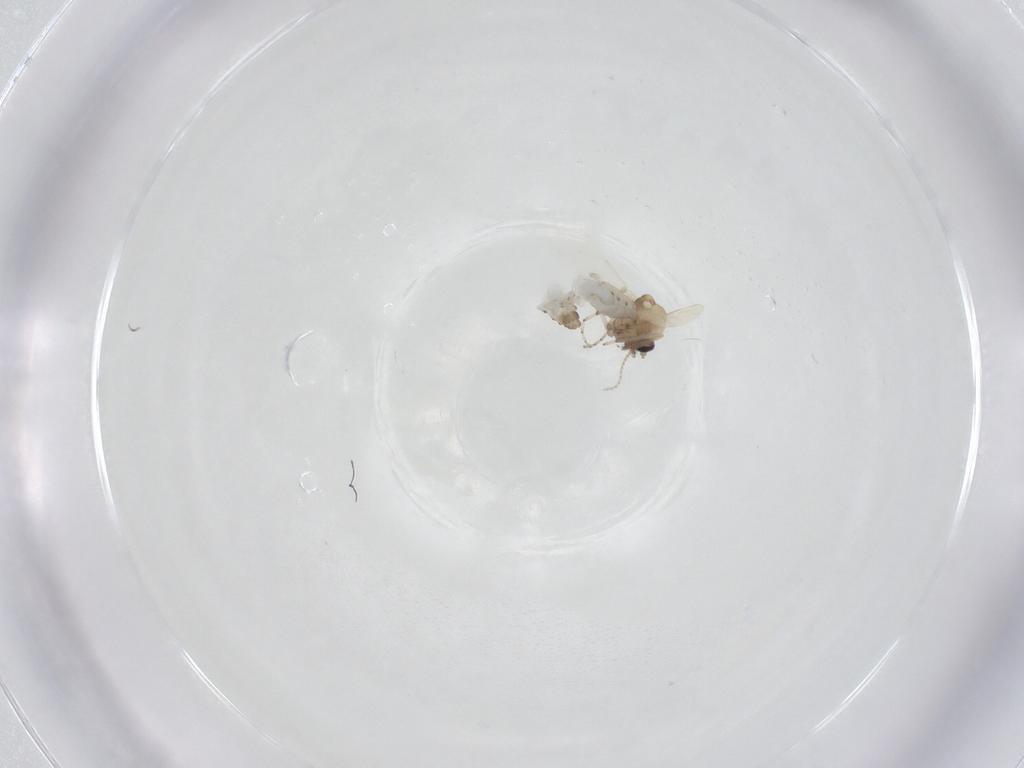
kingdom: Animalia
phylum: Arthropoda
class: Insecta
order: Diptera
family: Ceratopogonidae
